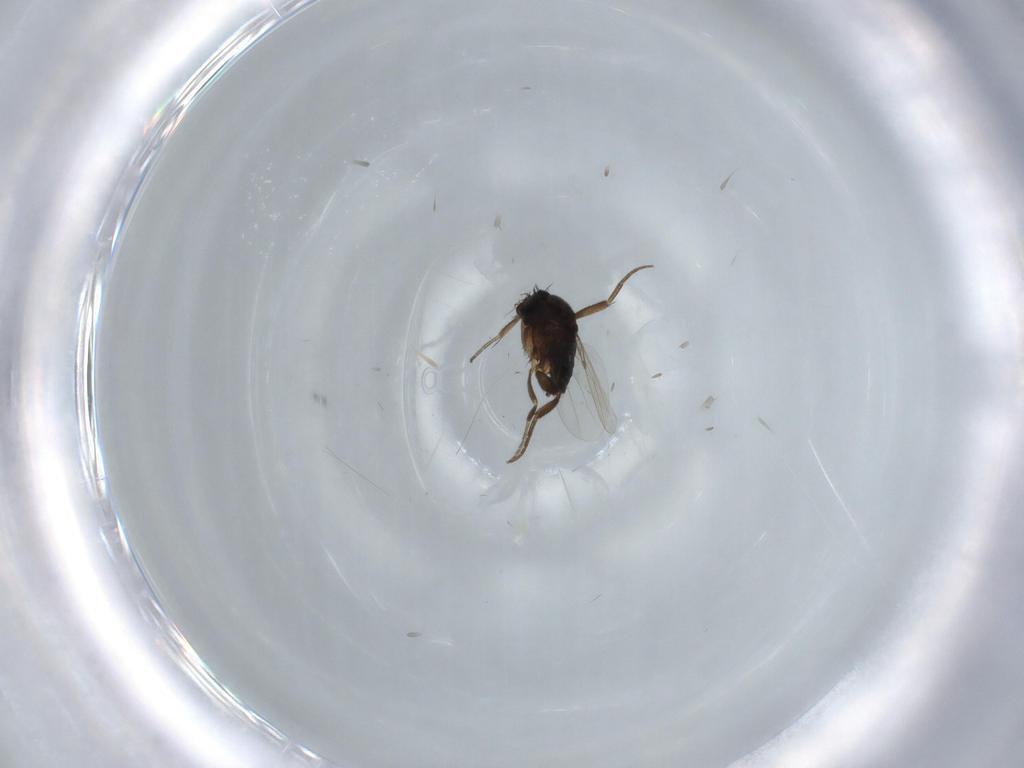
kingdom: Animalia
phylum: Arthropoda
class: Insecta
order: Diptera
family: Phoridae
